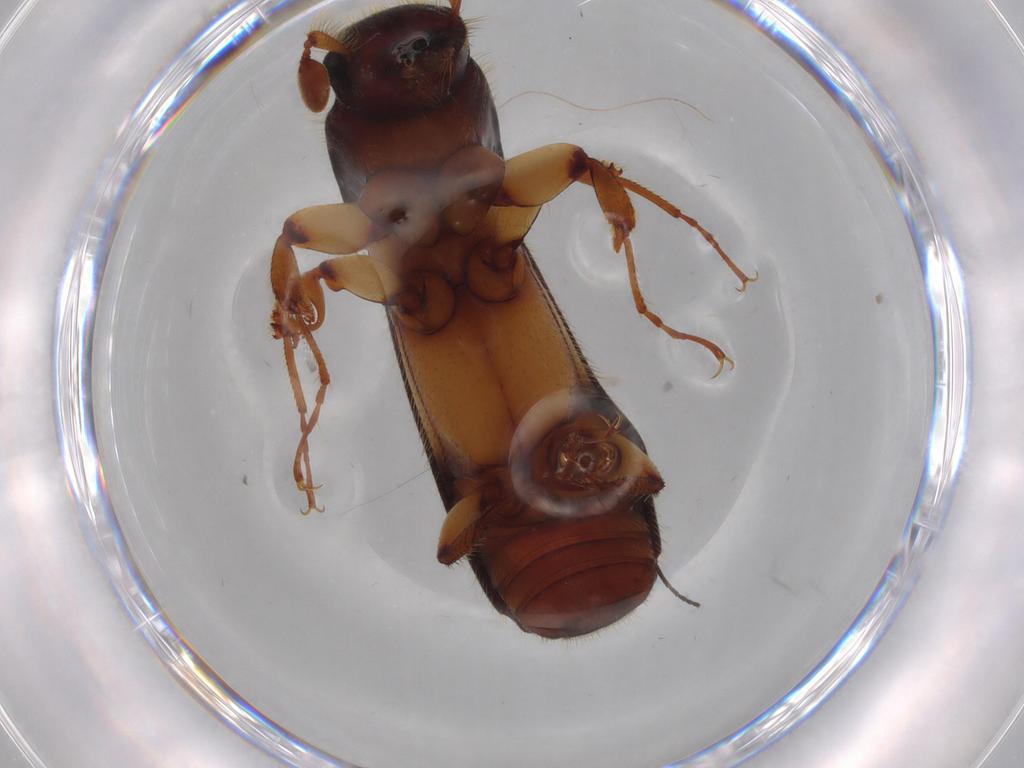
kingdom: Animalia
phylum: Arthropoda
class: Insecta
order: Coleoptera
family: Curculionidae
